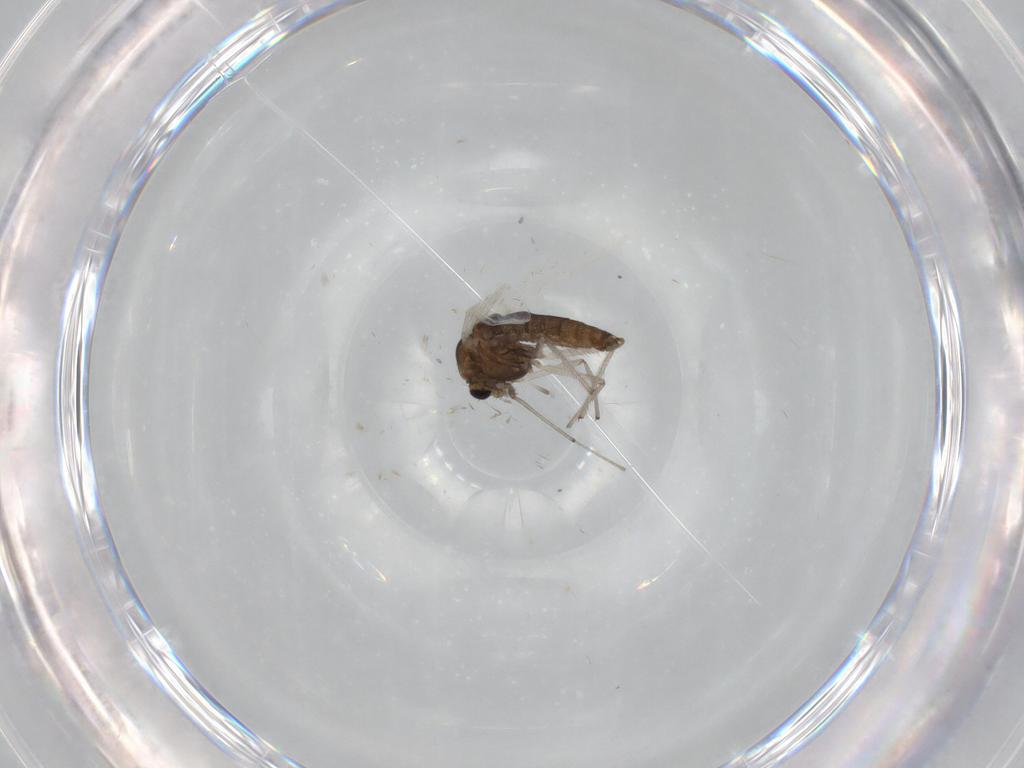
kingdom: Animalia
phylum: Arthropoda
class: Insecta
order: Diptera
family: Chironomidae
